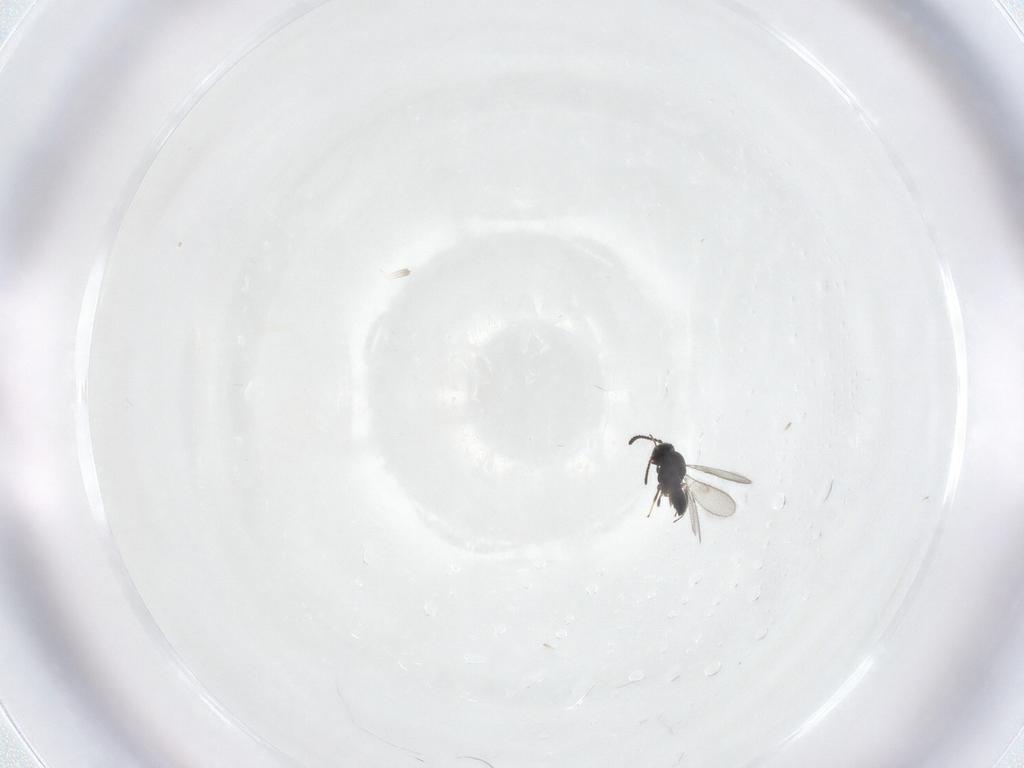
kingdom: Animalia
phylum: Arthropoda
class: Insecta
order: Hymenoptera
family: Scelionidae
